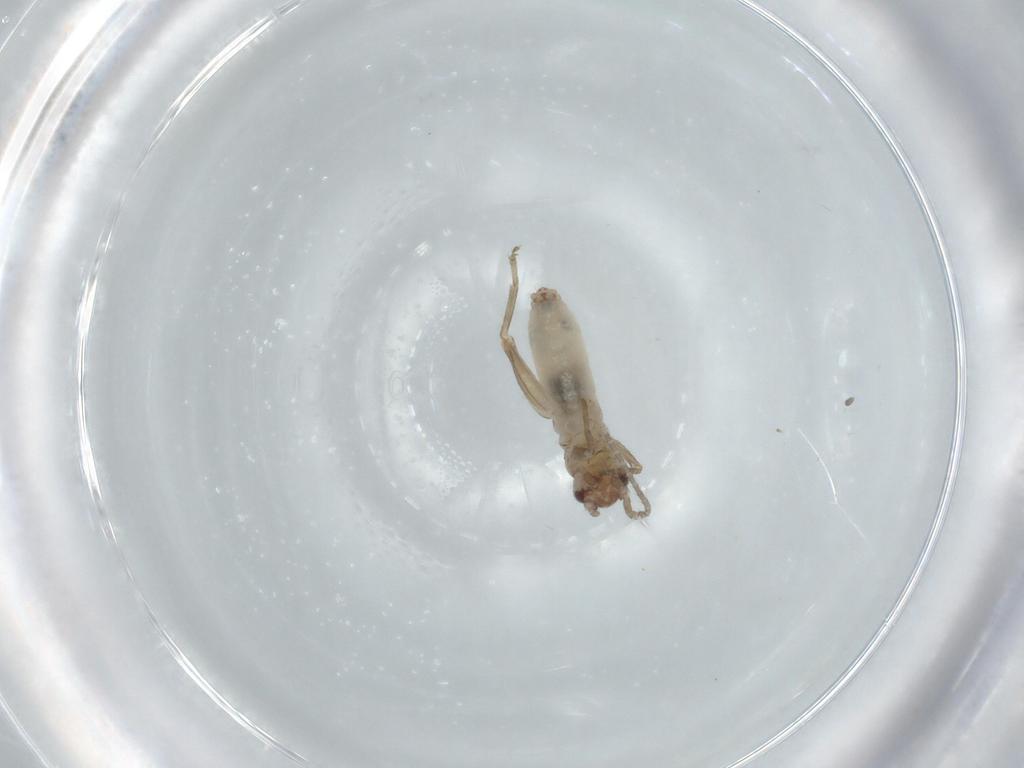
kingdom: Animalia
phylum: Arthropoda
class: Insecta
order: Orthoptera
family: Mogoplistidae
